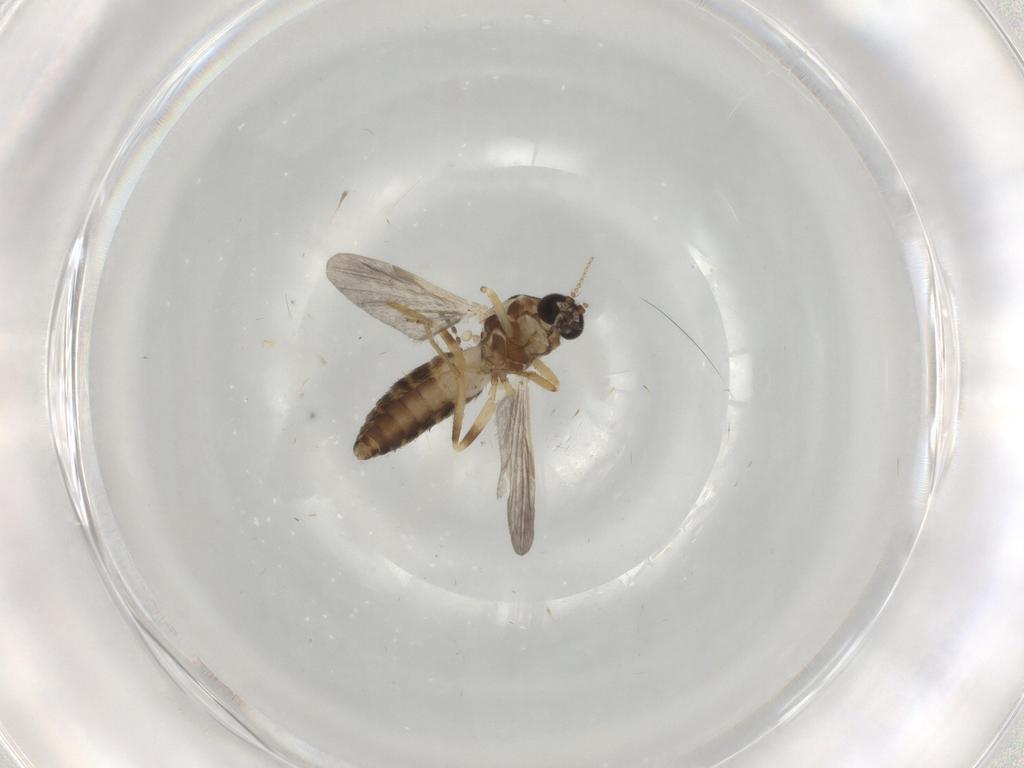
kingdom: Animalia
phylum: Arthropoda
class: Insecta
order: Diptera
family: Ceratopogonidae
